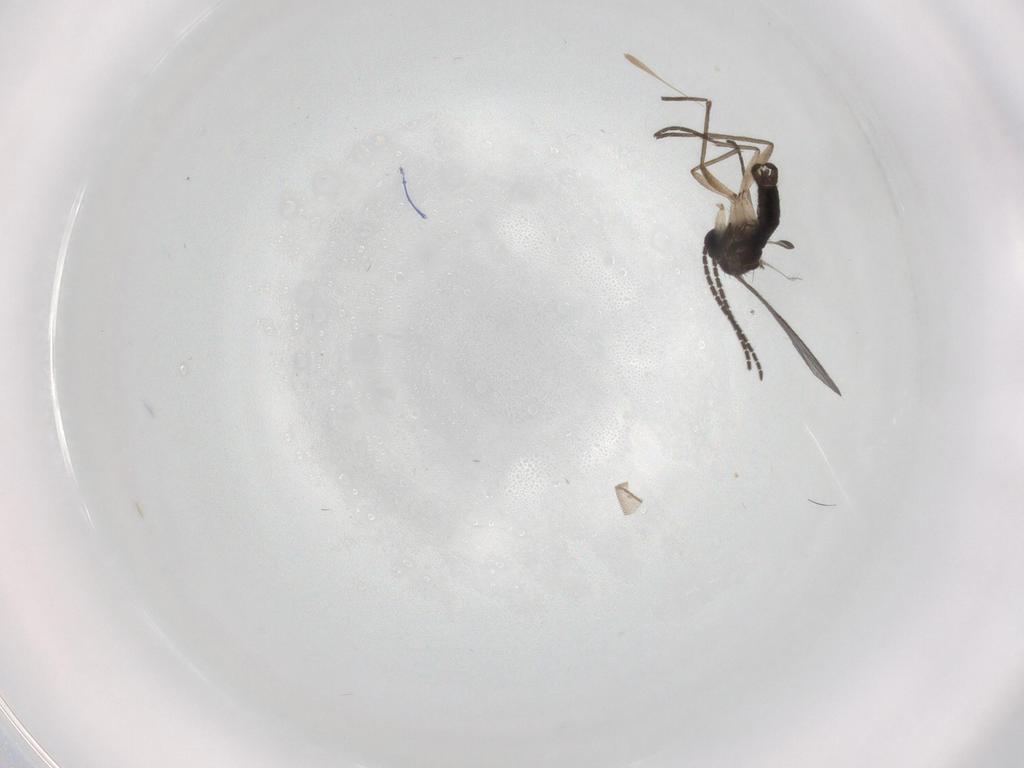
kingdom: Animalia
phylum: Arthropoda
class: Insecta
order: Diptera
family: Sciaridae
